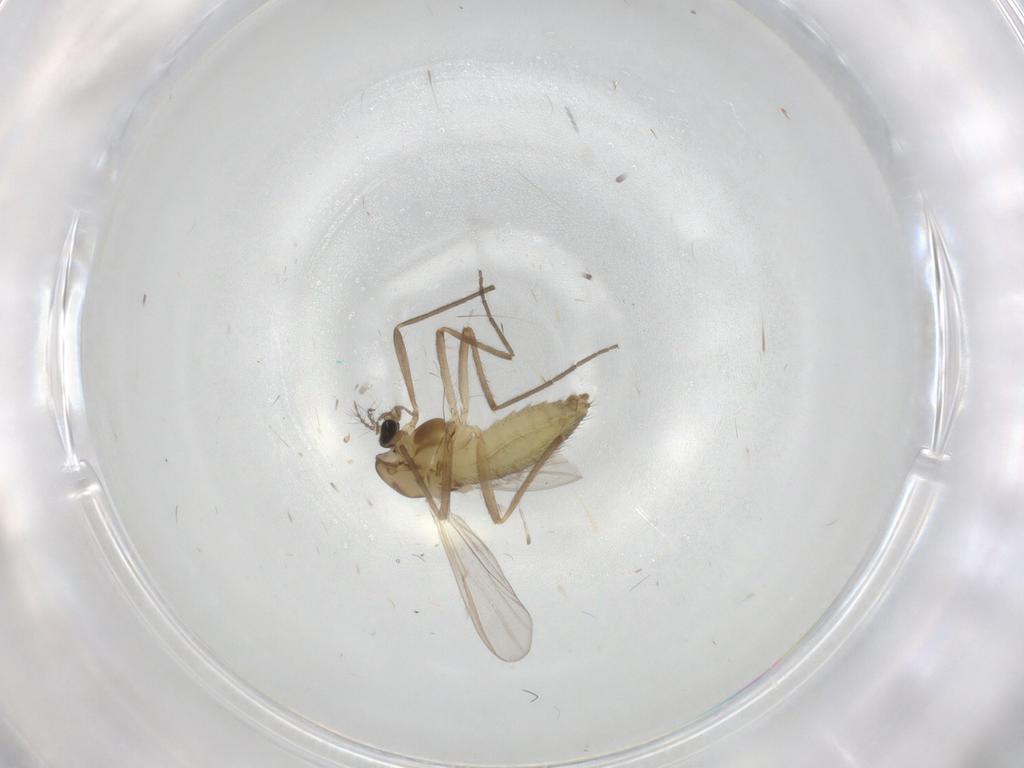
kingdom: Animalia
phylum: Arthropoda
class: Insecta
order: Diptera
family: Chironomidae
